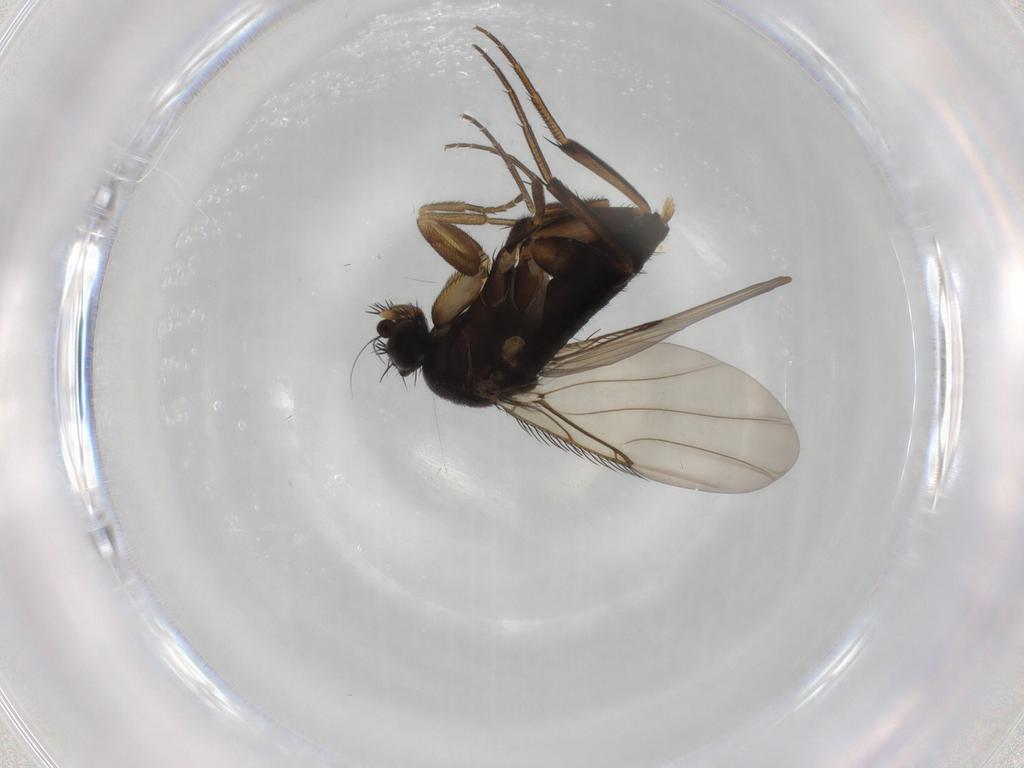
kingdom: Animalia
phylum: Arthropoda
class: Insecta
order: Diptera
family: Phoridae
